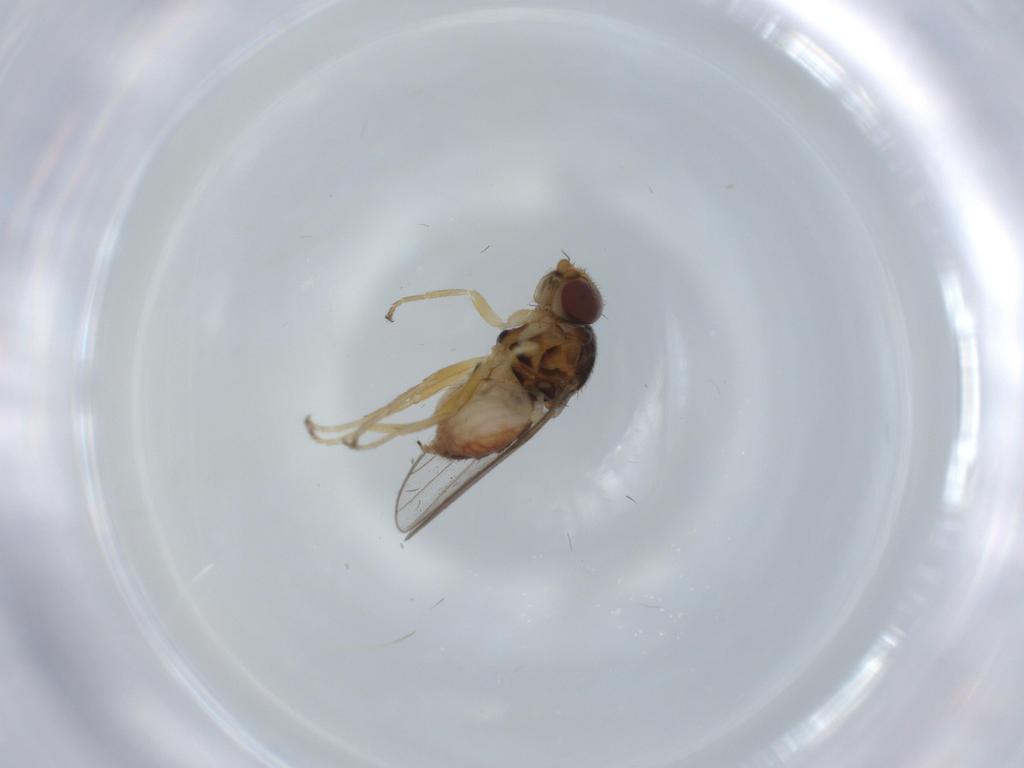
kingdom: Animalia
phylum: Arthropoda
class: Insecta
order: Diptera
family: Chloropidae
